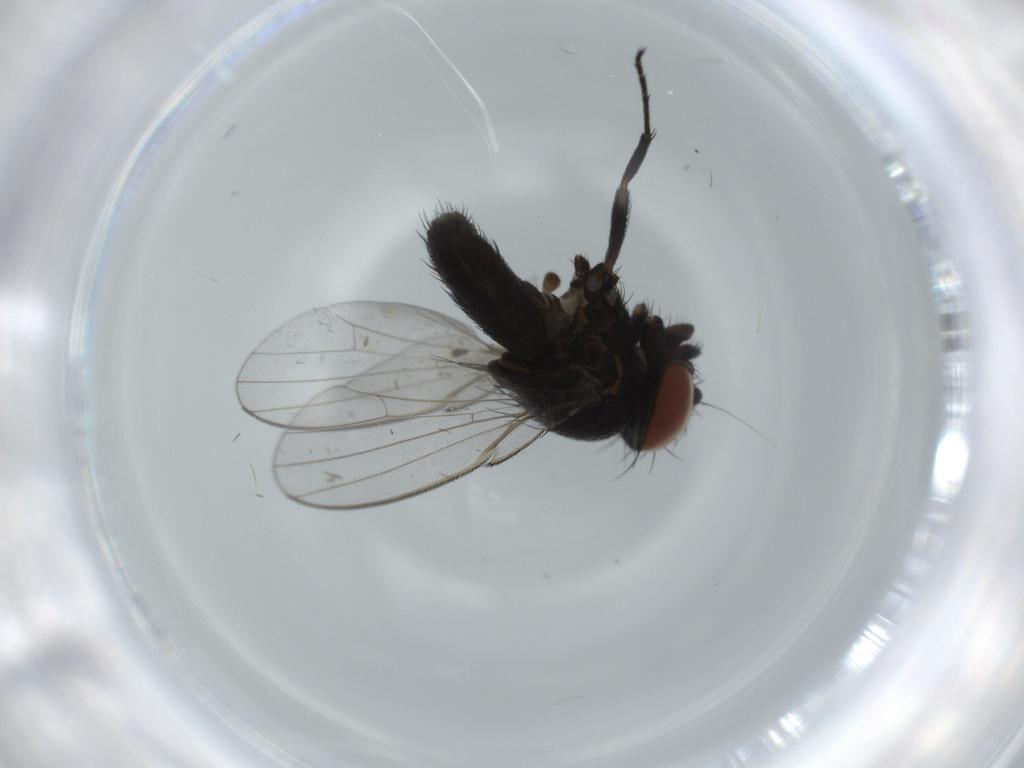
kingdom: Animalia
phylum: Arthropoda
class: Insecta
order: Diptera
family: Milichiidae
